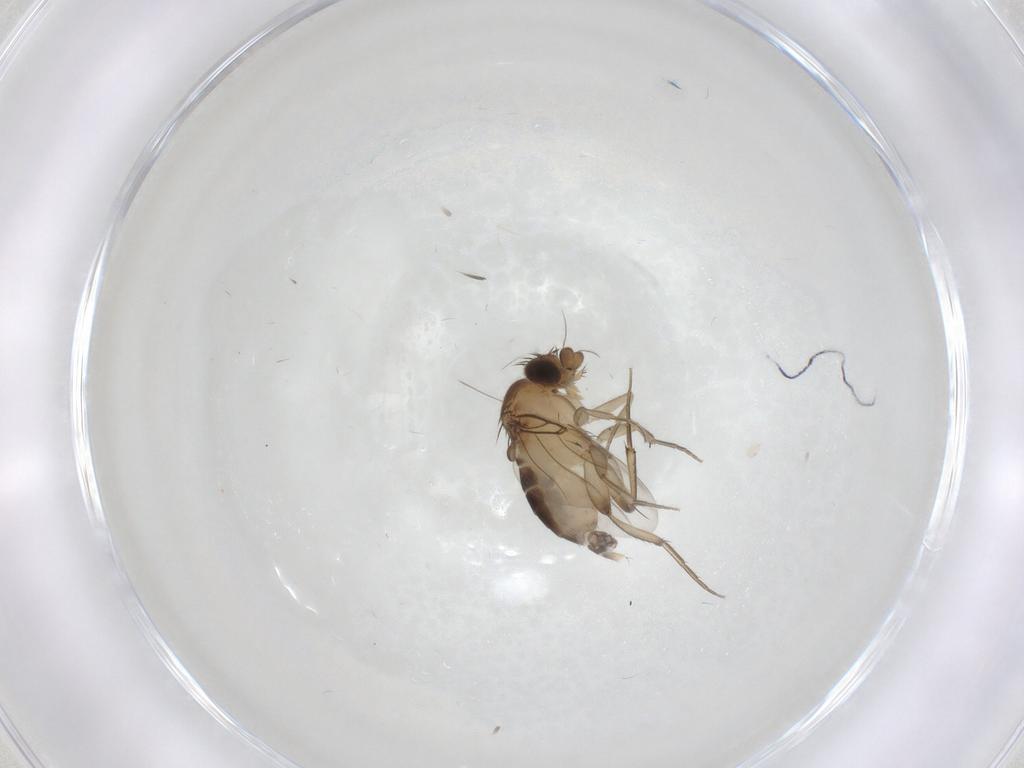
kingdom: Animalia
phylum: Arthropoda
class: Insecta
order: Diptera
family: Phoridae
